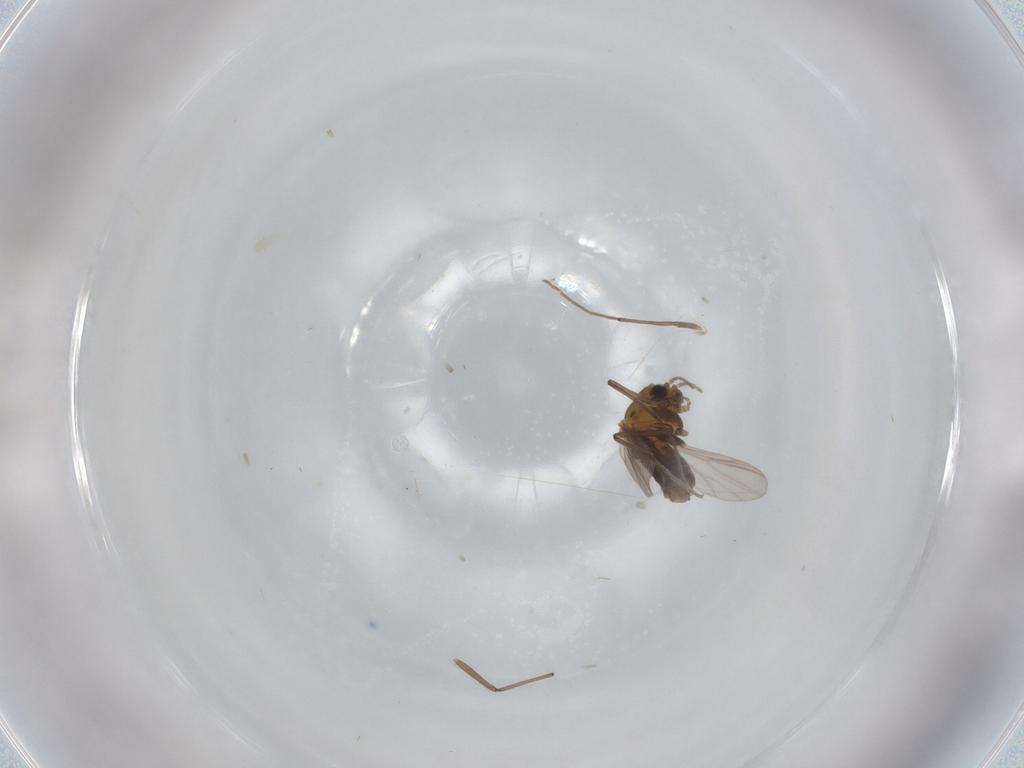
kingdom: Animalia
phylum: Arthropoda
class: Insecta
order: Diptera
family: Chironomidae
